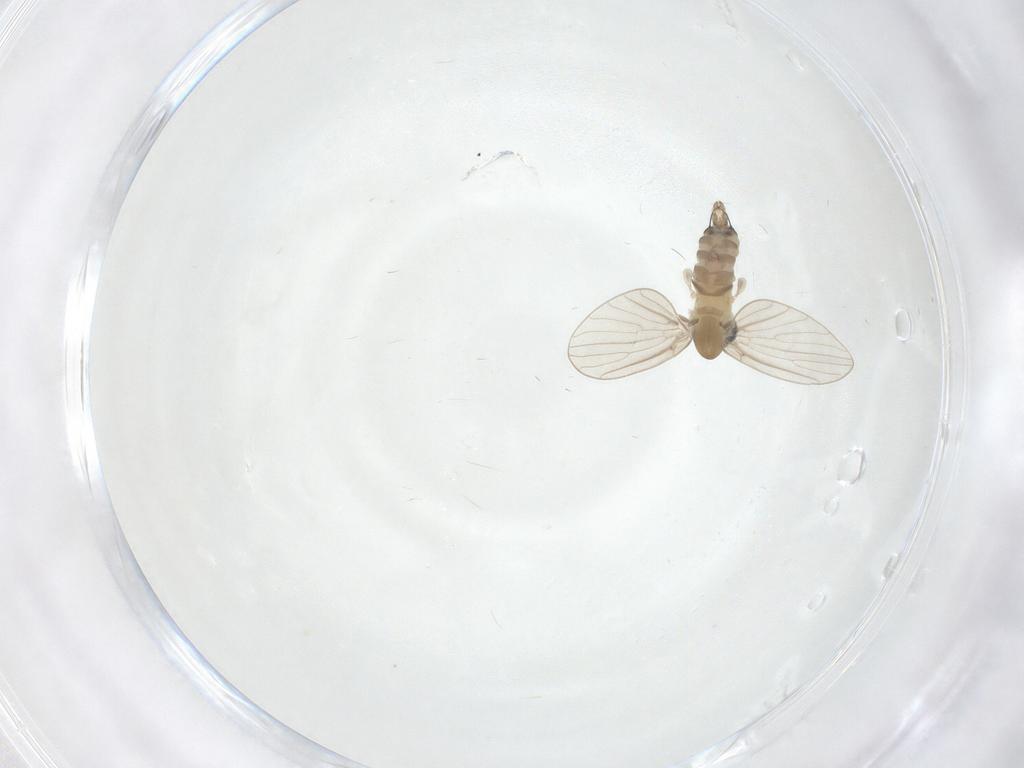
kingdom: Animalia
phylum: Arthropoda
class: Insecta
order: Diptera
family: Psychodidae
